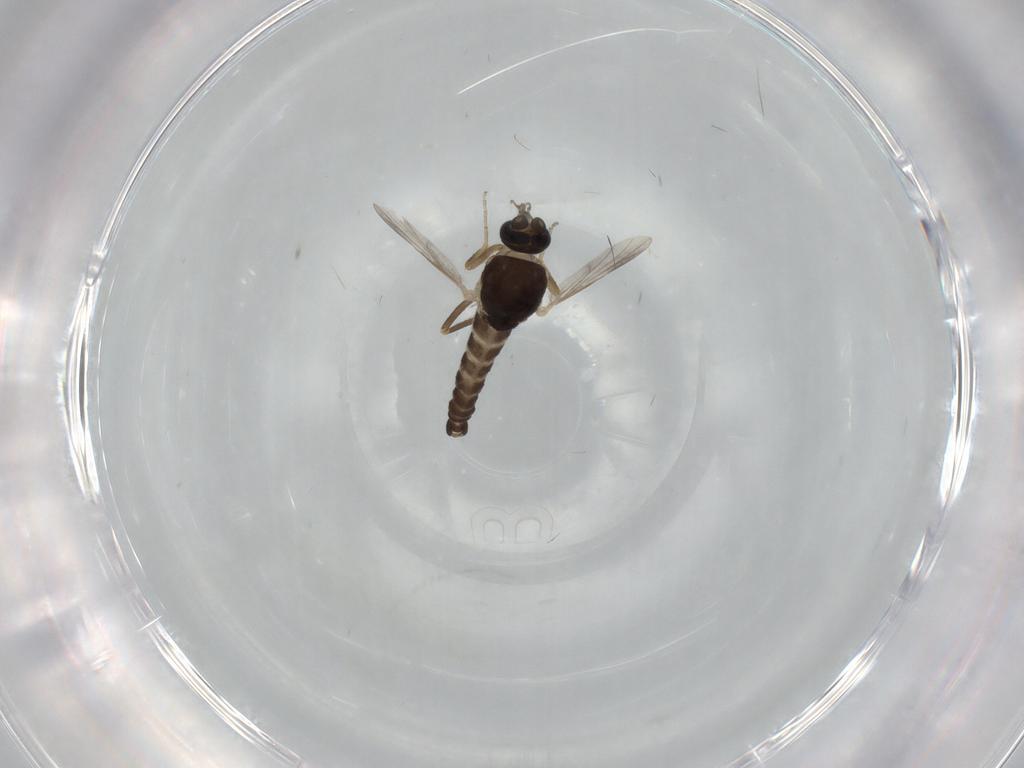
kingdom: Animalia
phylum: Arthropoda
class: Insecta
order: Diptera
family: Ceratopogonidae
